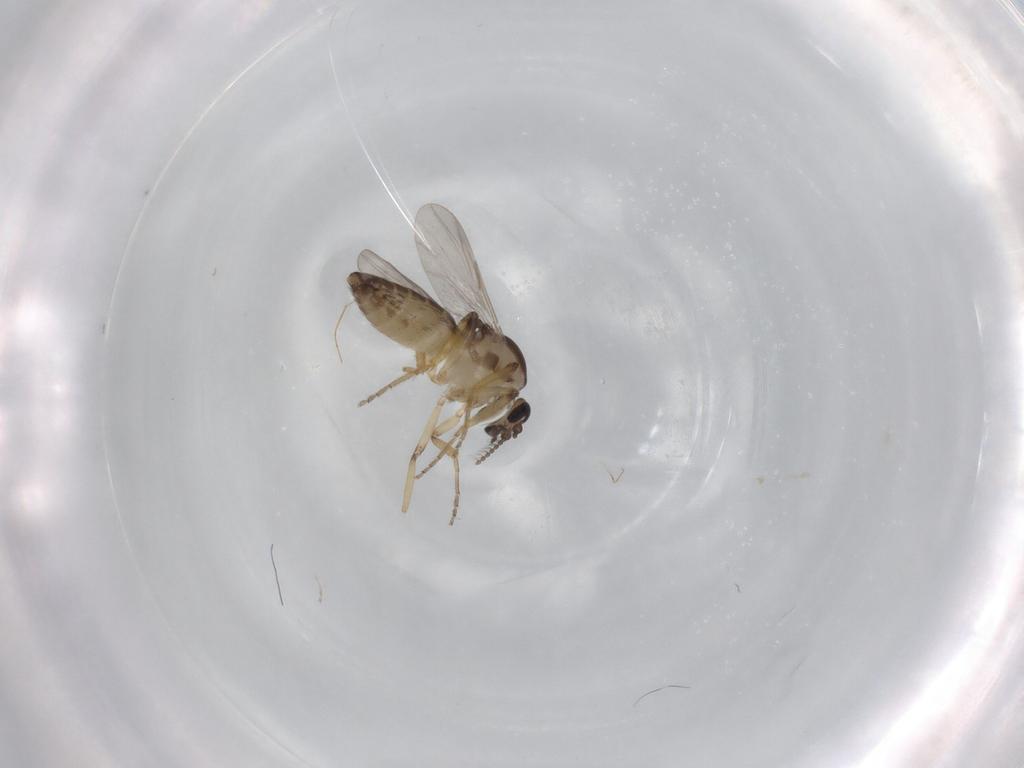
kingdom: Animalia
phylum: Arthropoda
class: Insecta
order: Diptera
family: Ceratopogonidae
